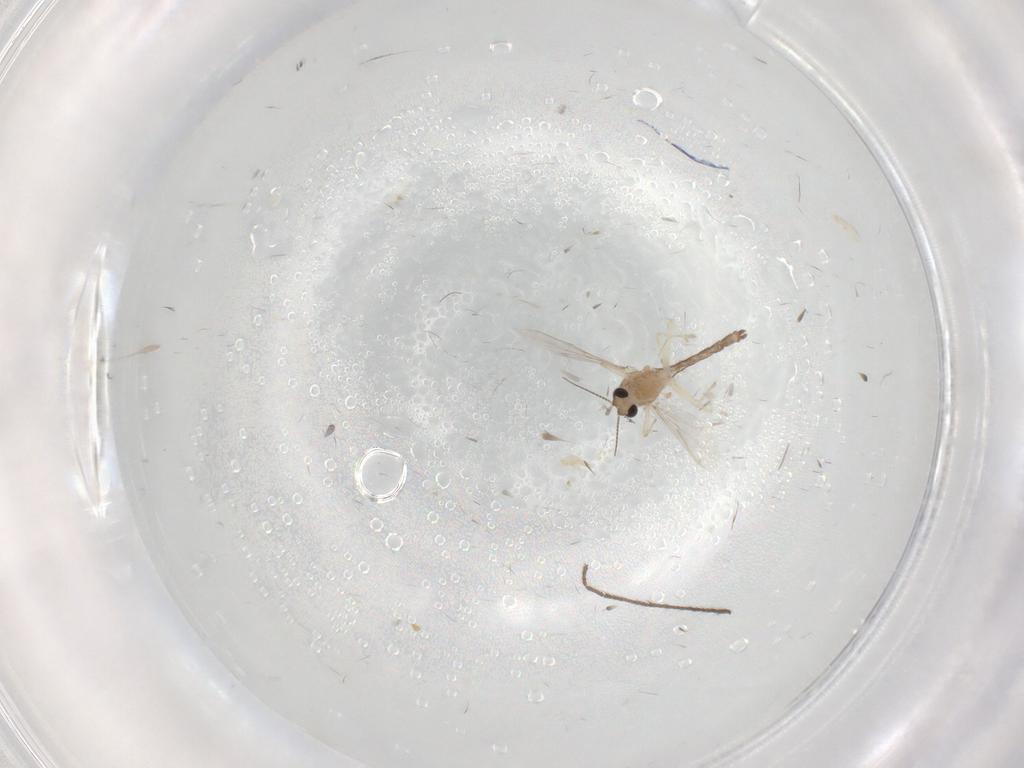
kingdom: Animalia
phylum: Arthropoda
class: Insecta
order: Diptera
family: Limoniidae
